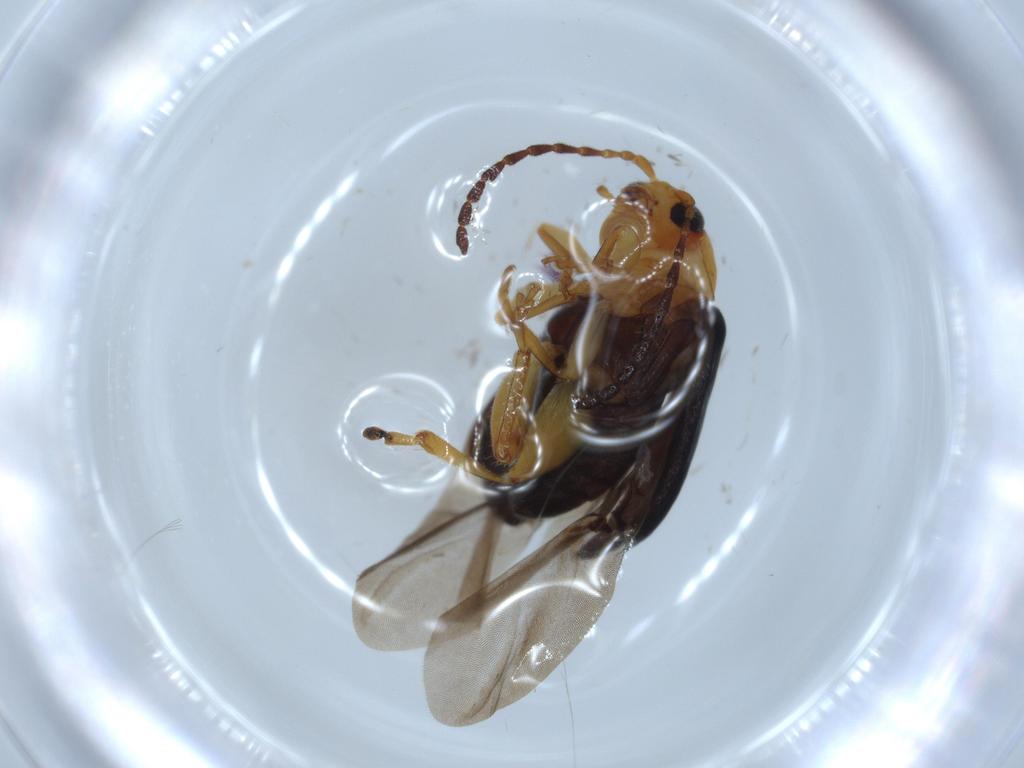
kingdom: Animalia
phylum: Arthropoda
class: Insecta
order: Coleoptera
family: Chrysomelidae
